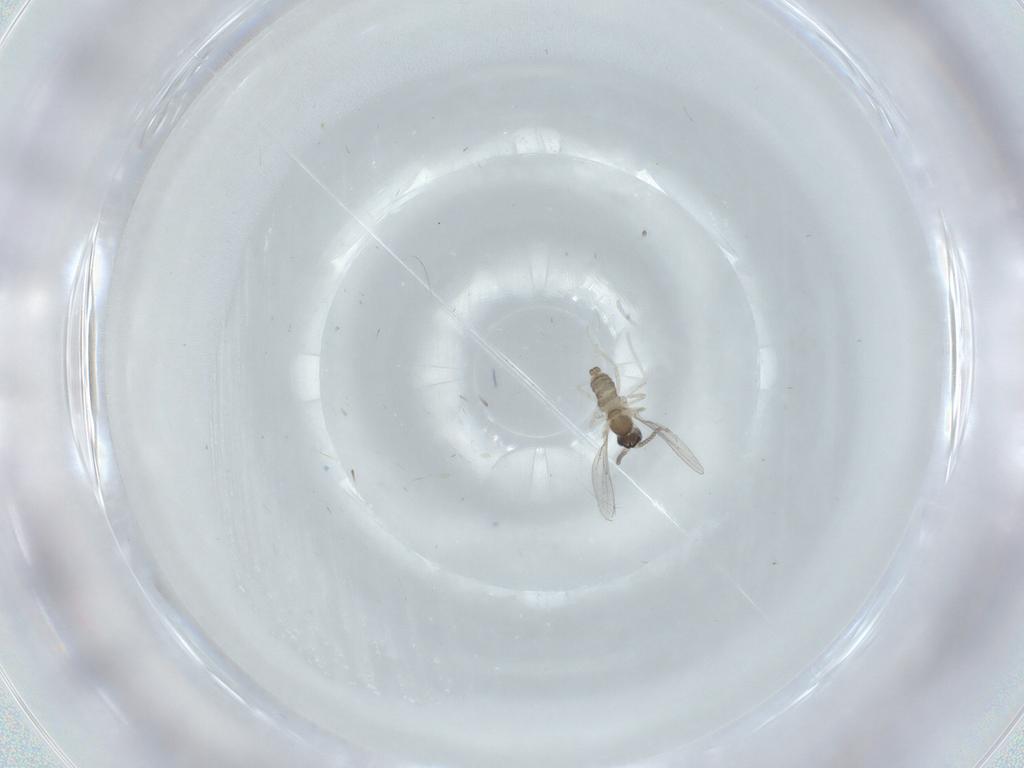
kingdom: Animalia
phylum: Arthropoda
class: Insecta
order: Diptera
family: Cecidomyiidae
